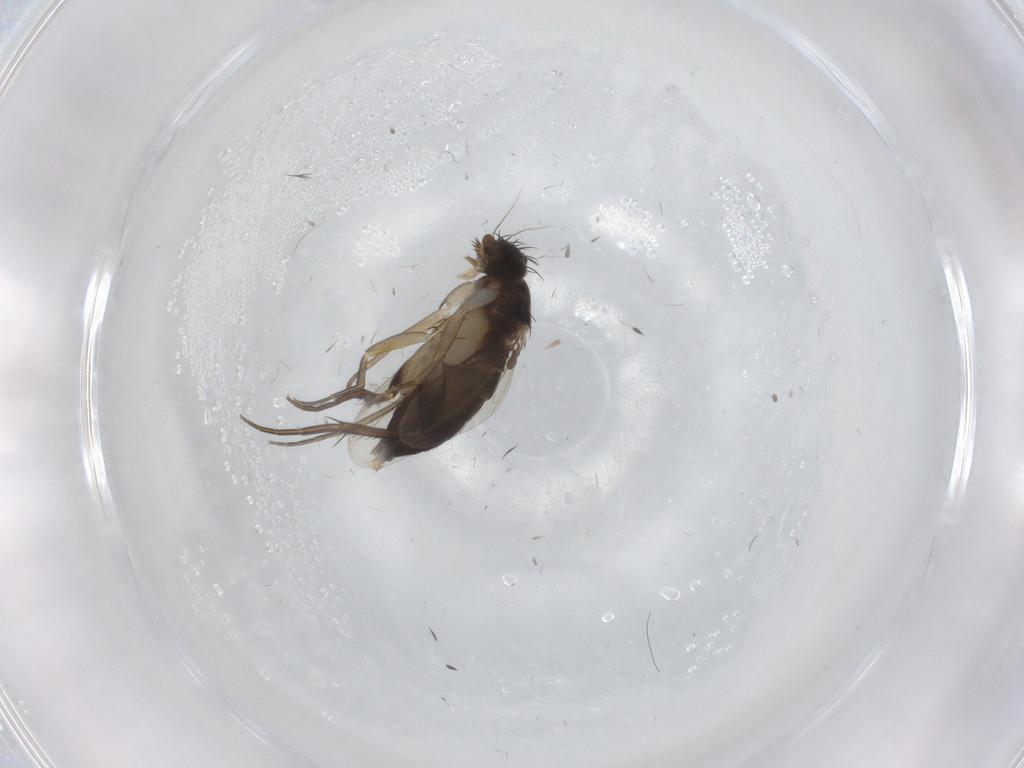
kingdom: Animalia
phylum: Arthropoda
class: Insecta
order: Diptera
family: Phoridae
